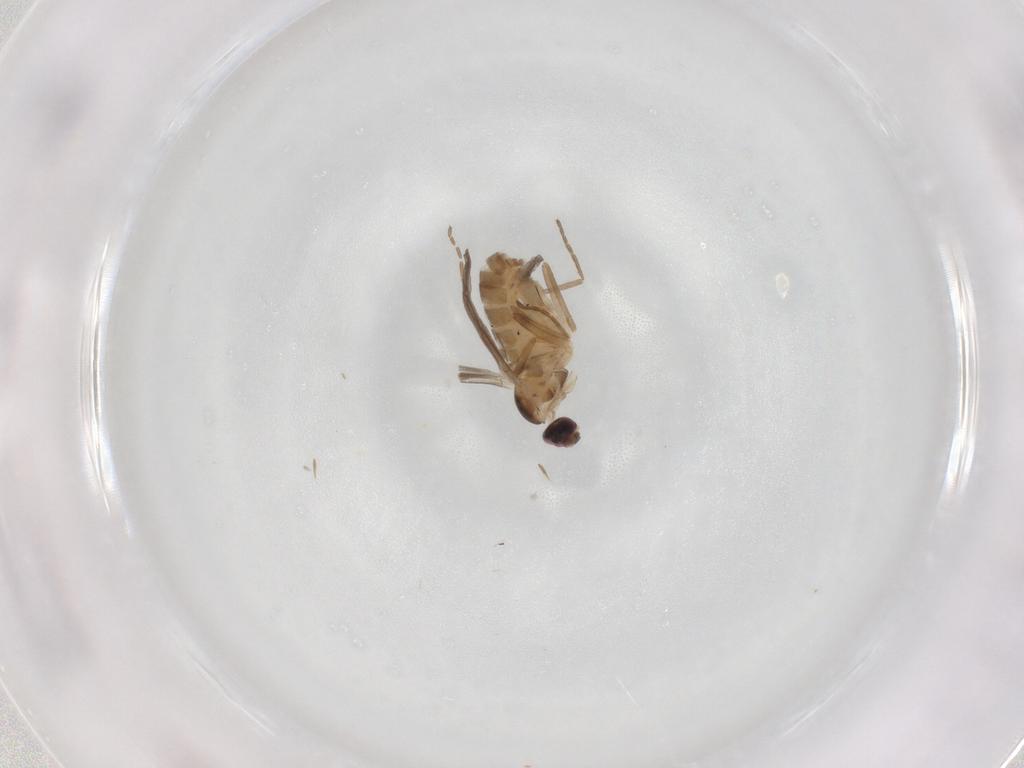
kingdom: Animalia
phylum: Arthropoda
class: Insecta
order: Diptera
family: Cecidomyiidae
